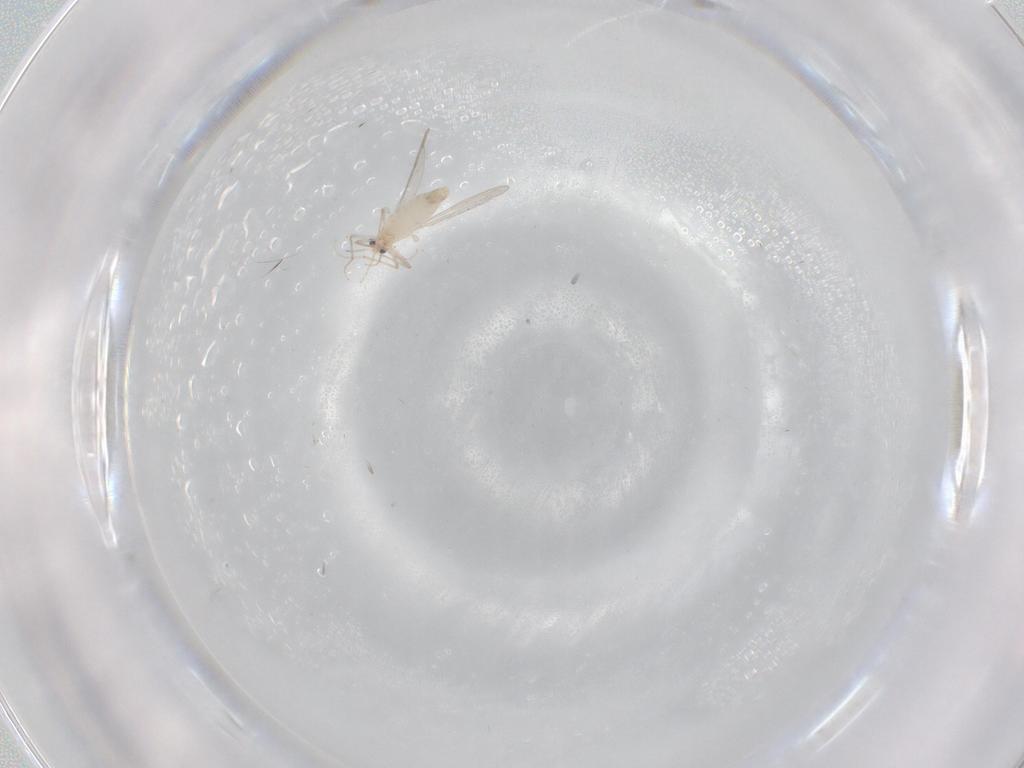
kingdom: Animalia
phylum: Arthropoda
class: Insecta
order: Diptera
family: Chironomidae
